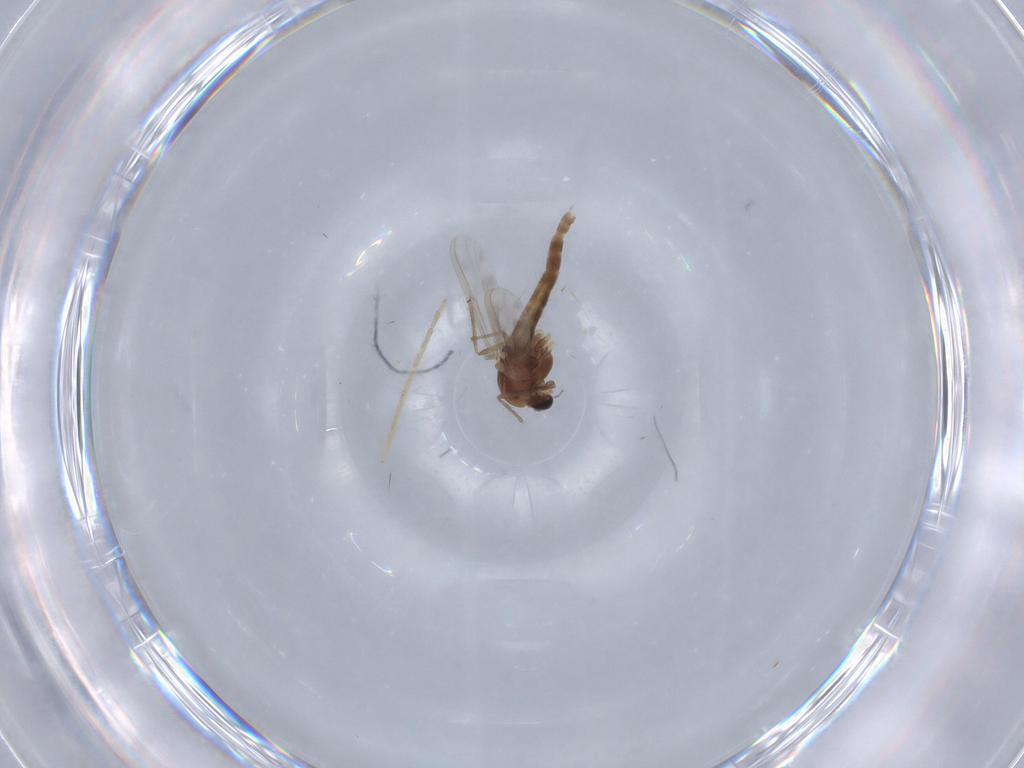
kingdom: Animalia
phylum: Arthropoda
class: Insecta
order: Diptera
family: Chironomidae
